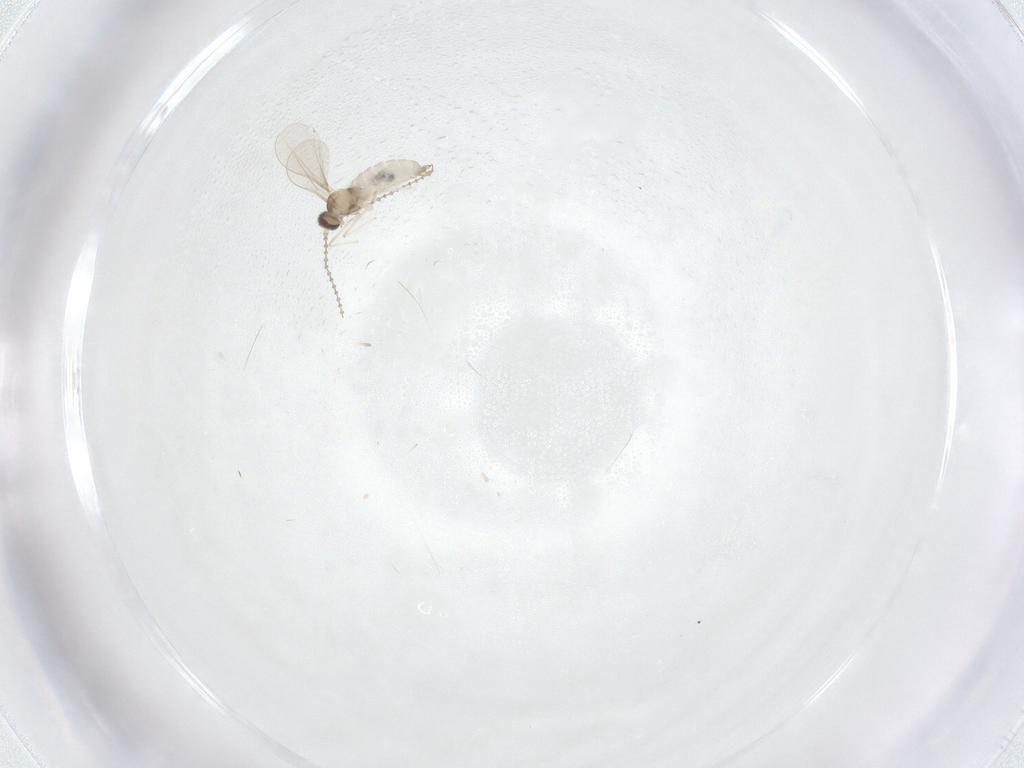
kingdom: Animalia
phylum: Arthropoda
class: Insecta
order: Diptera
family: Cecidomyiidae
